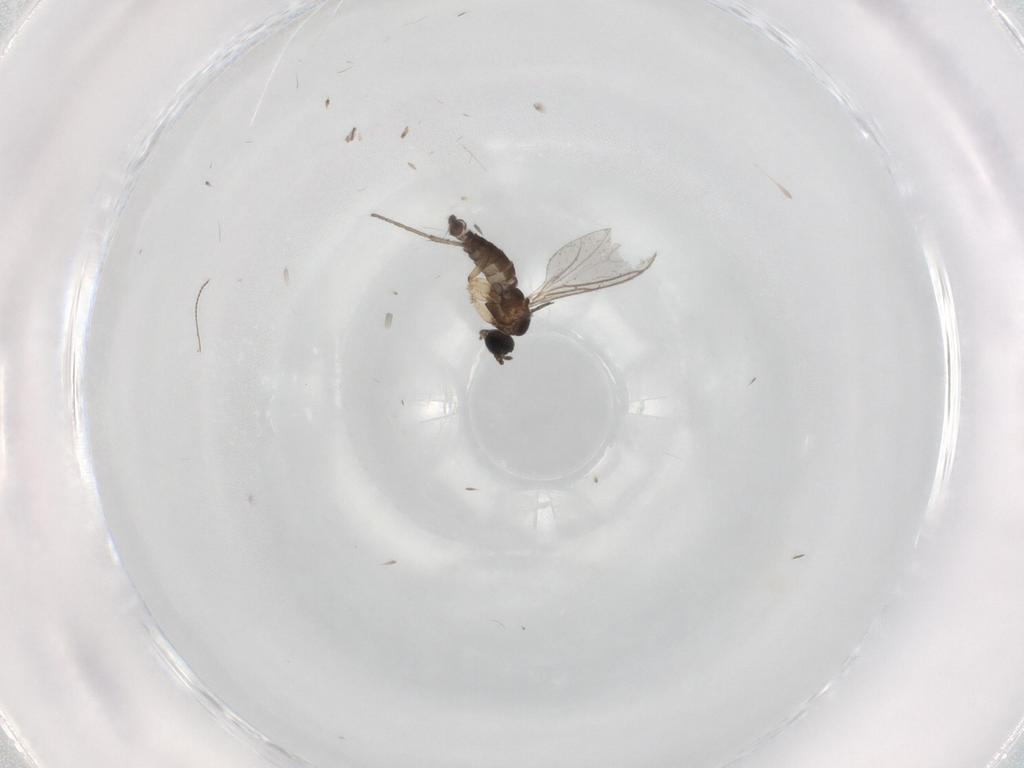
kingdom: Animalia
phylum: Arthropoda
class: Insecta
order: Diptera
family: Sciaridae
